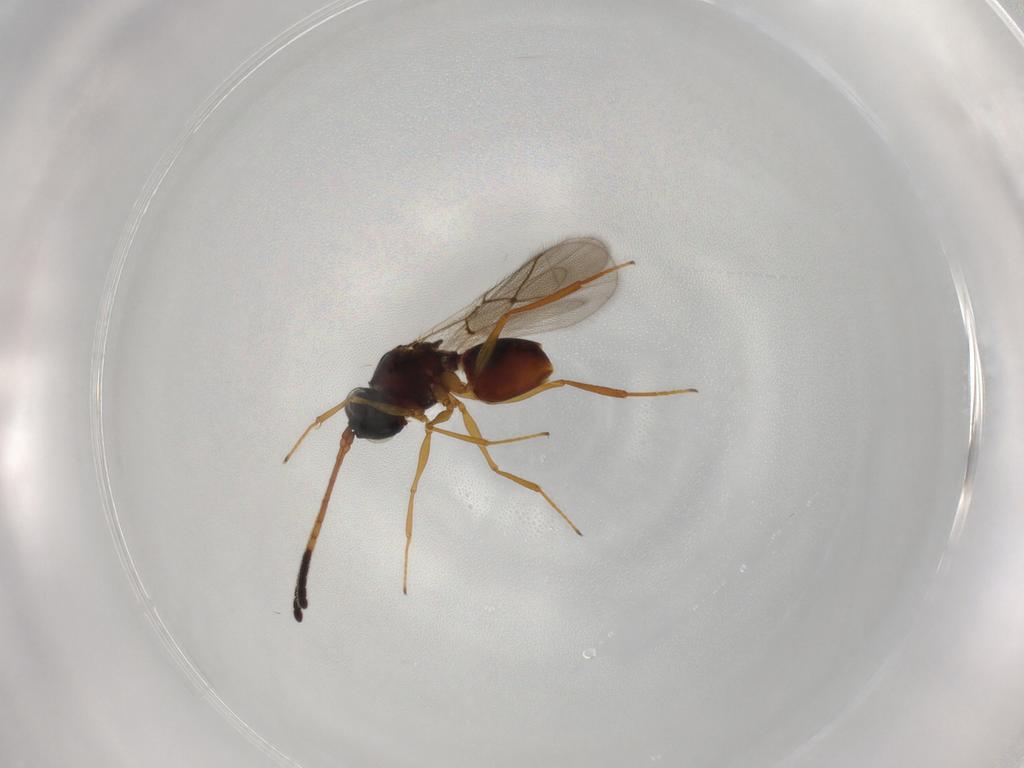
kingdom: Animalia
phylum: Arthropoda
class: Insecta
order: Hymenoptera
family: Figitidae
